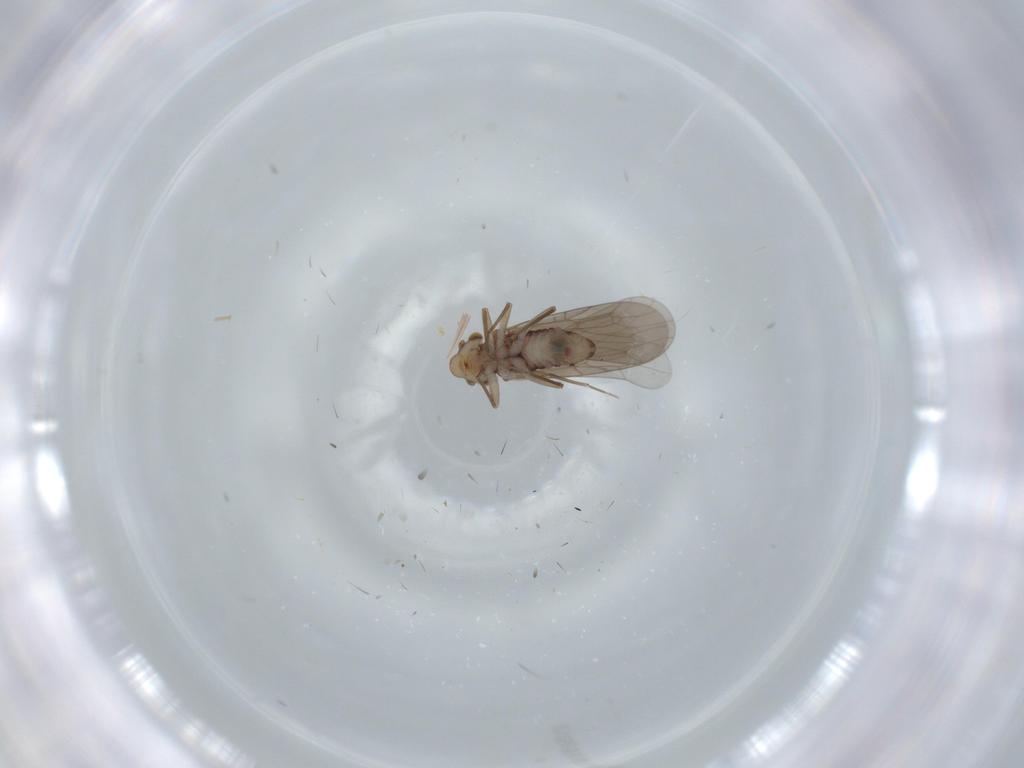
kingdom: Animalia
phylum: Arthropoda
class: Insecta
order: Psocodea
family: Lepidopsocidae
